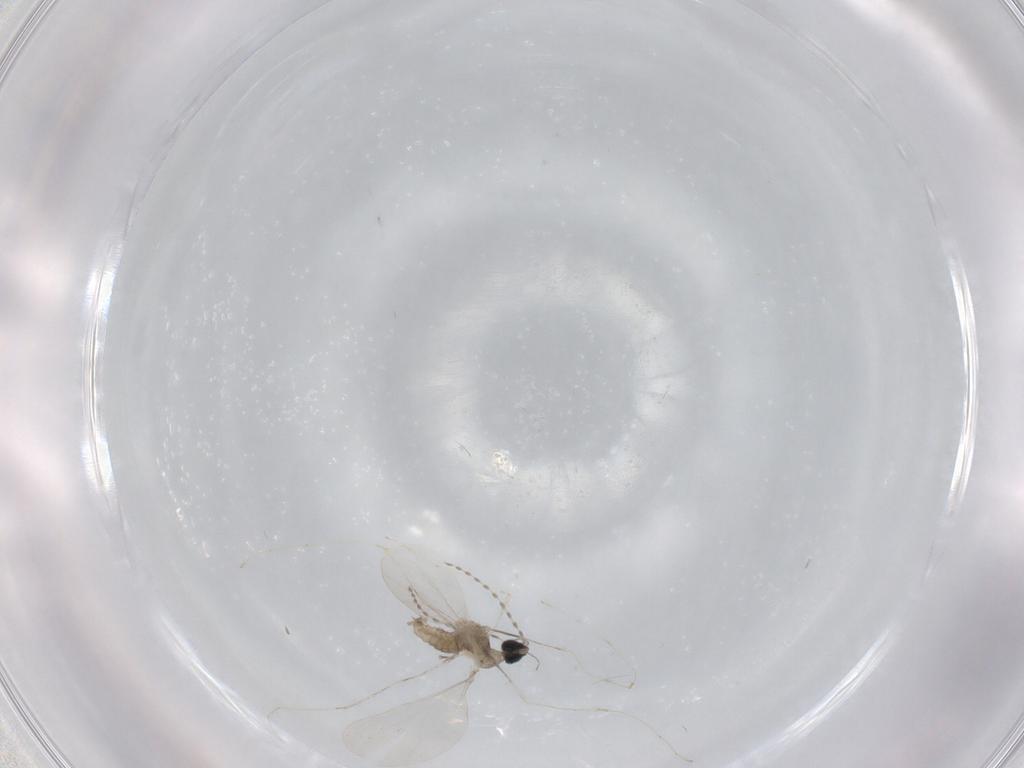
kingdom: Animalia
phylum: Arthropoda
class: Insecta
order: Diptera
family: Cecidomyiidae
